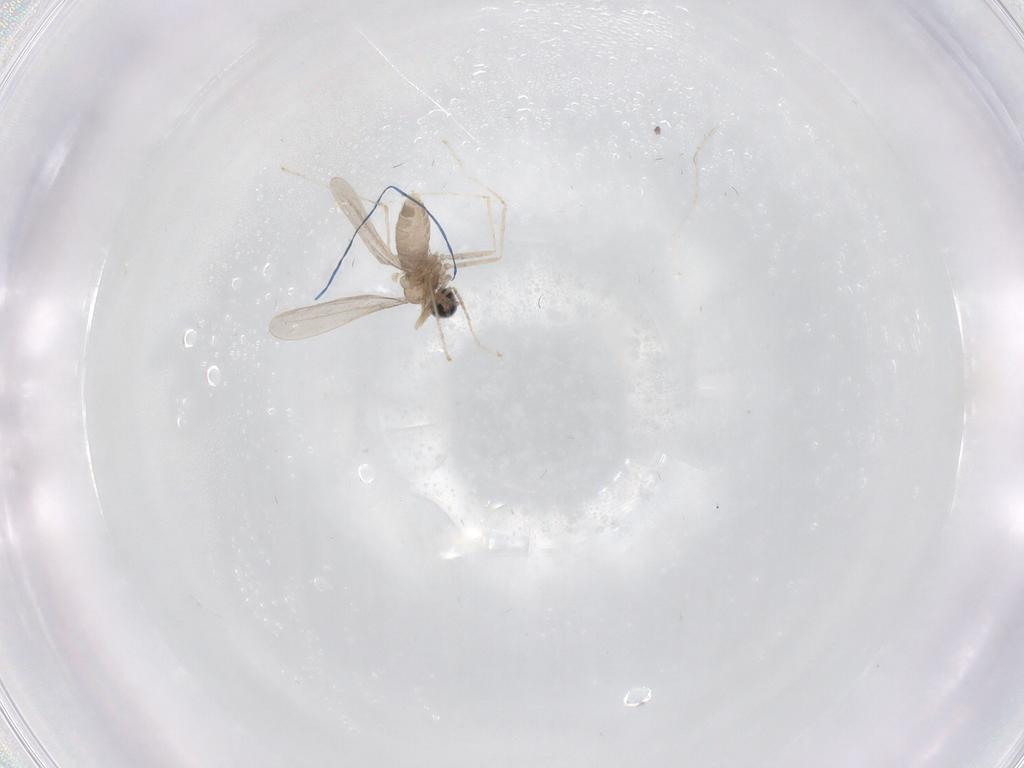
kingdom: Animalia
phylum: Arthropoda
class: Insecta
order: Diptera
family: Cecidomyiidae
